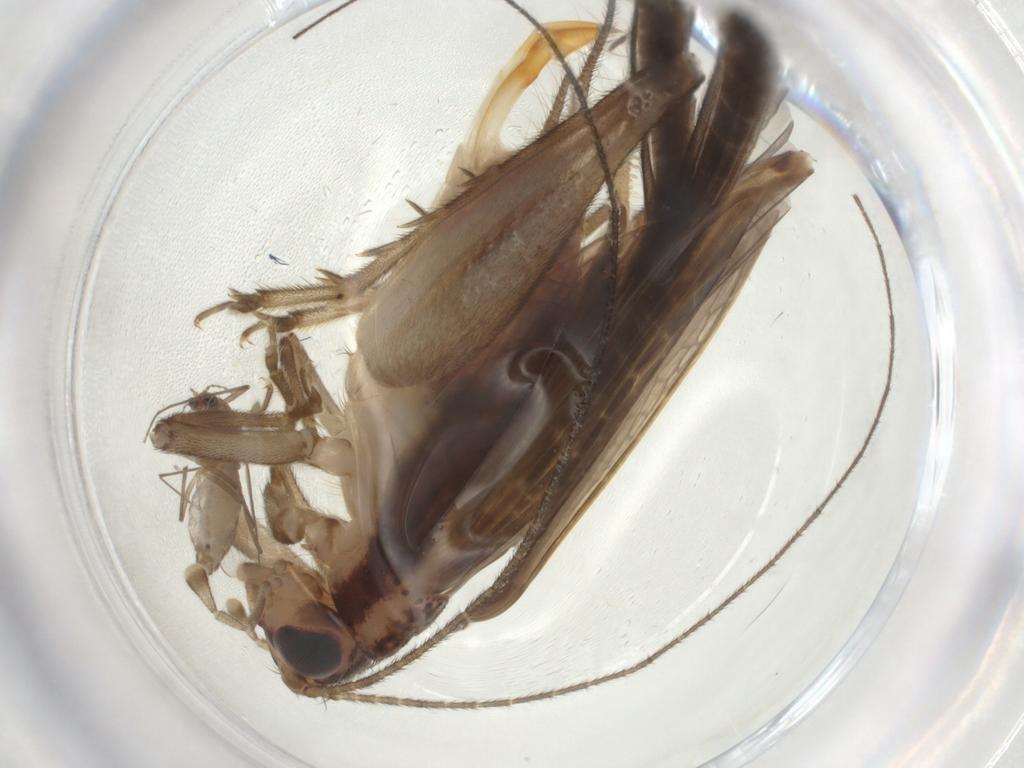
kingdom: Animalia
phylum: Arthropoda
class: Insecta
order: Orthoptera
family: Trigonidiidae
